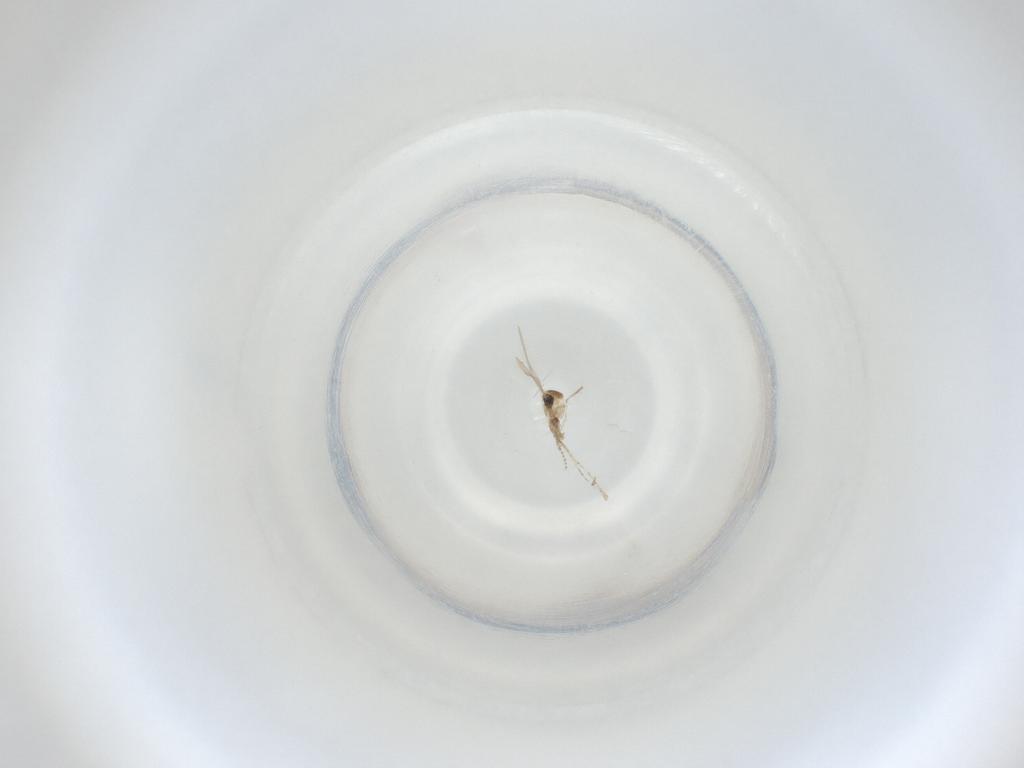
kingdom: Animalia
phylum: Arthropoda
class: Insecta
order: Diptera
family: Cecidomyiidae
